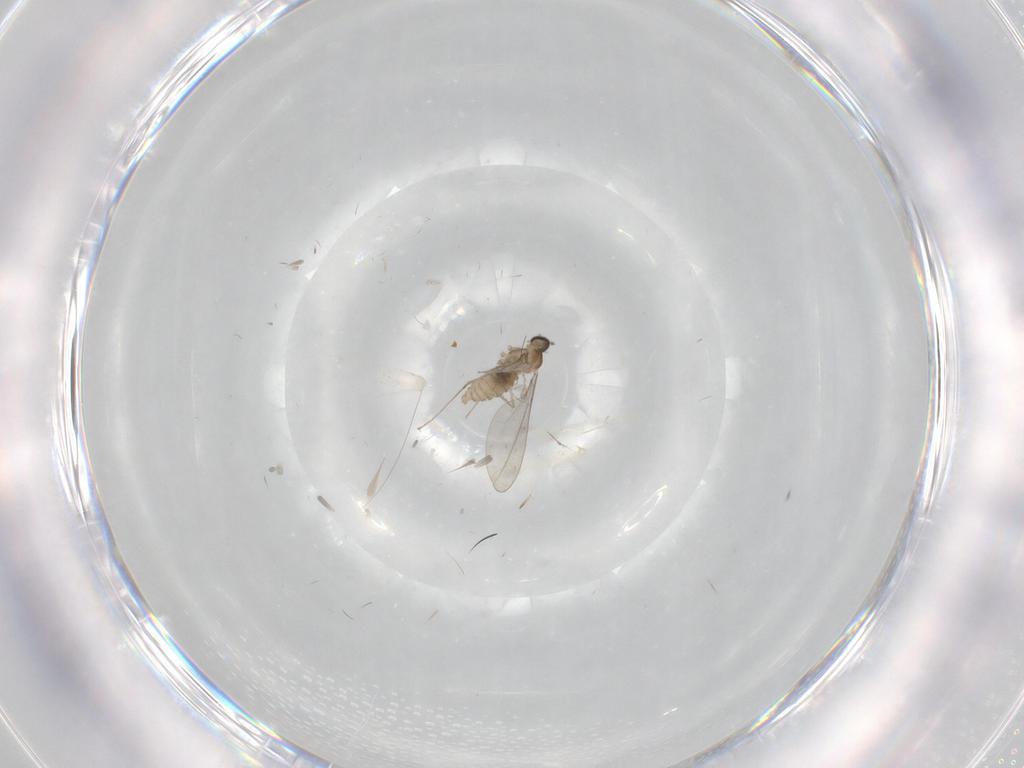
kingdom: Animalia
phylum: Arthropoda
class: Insecta
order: Diptera
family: Cecidomyiidae
